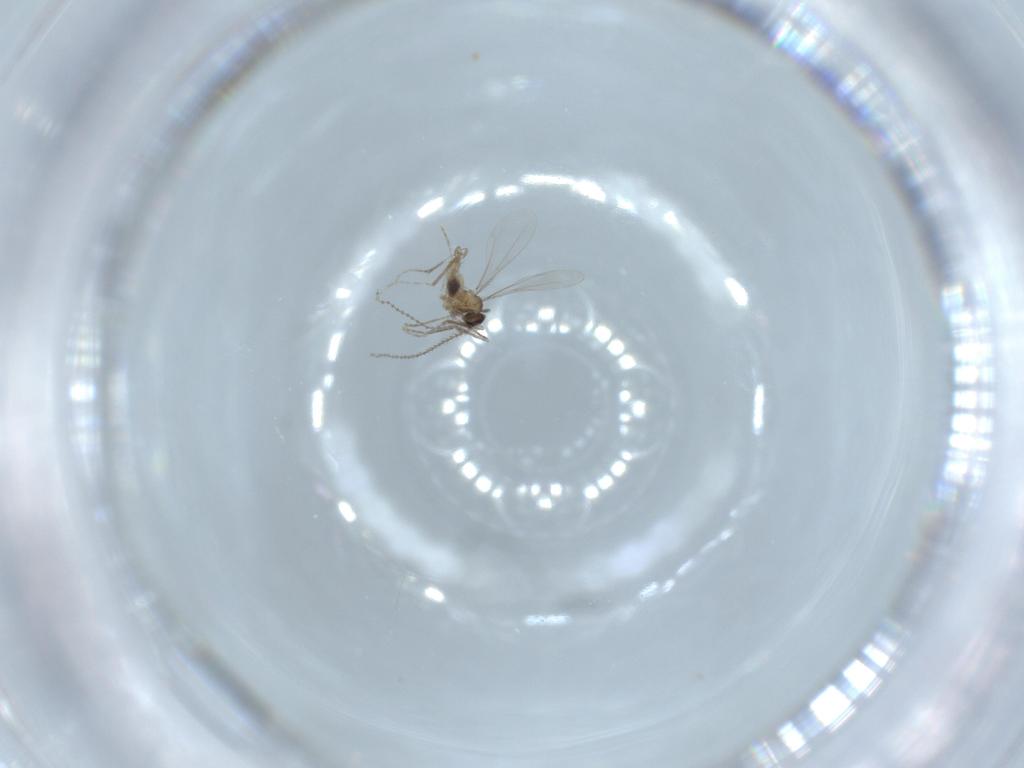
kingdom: Animalia
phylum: Arthropoda
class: Insecta
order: Diptera
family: Cecidomyiidae
